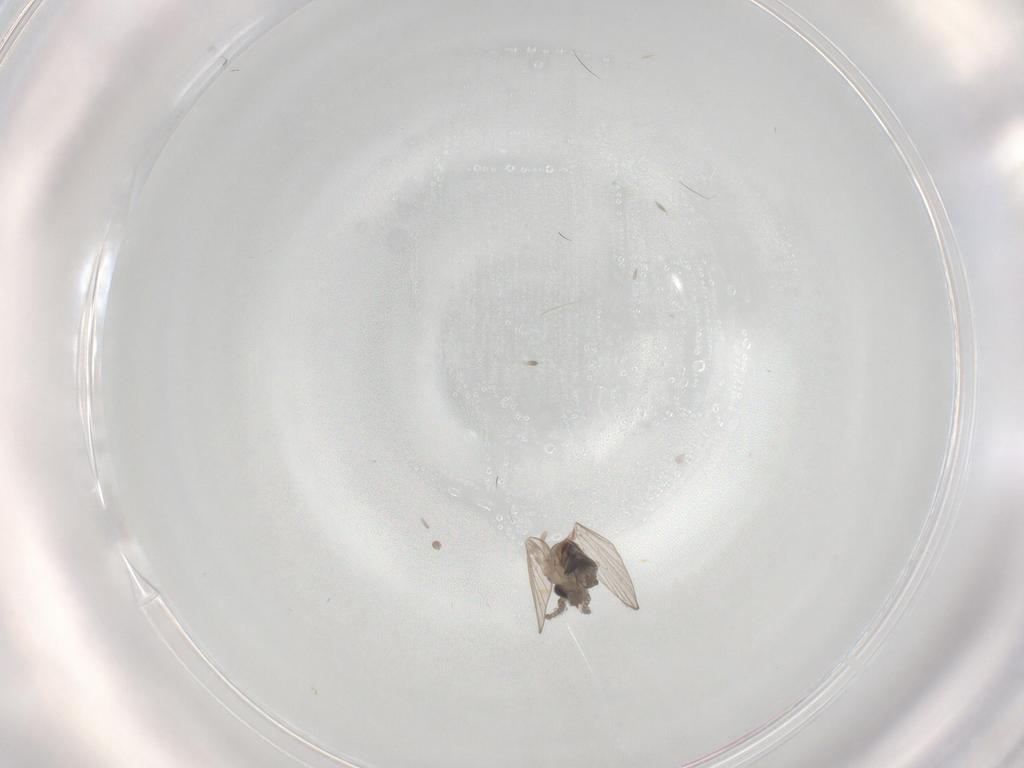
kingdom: Animalia
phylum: Arthropoda
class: Insecta
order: Diptera
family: Psychodidae
